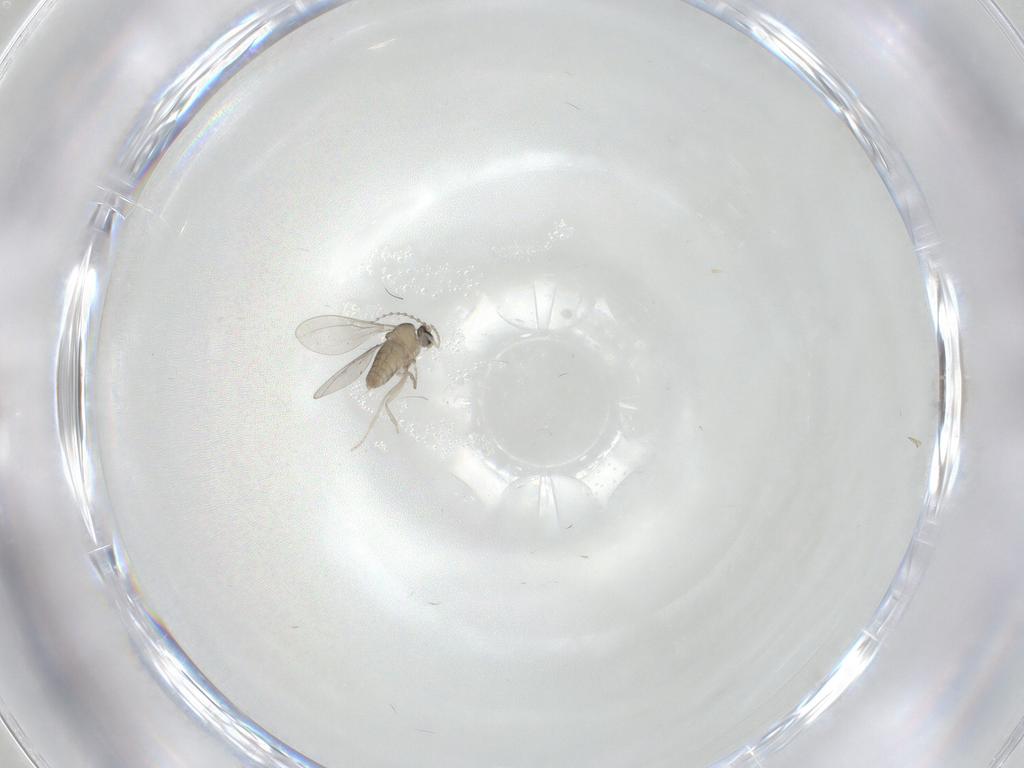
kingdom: Animalia
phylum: Arthropoda
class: Insecta
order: Diptera
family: Cecidomyiidae
